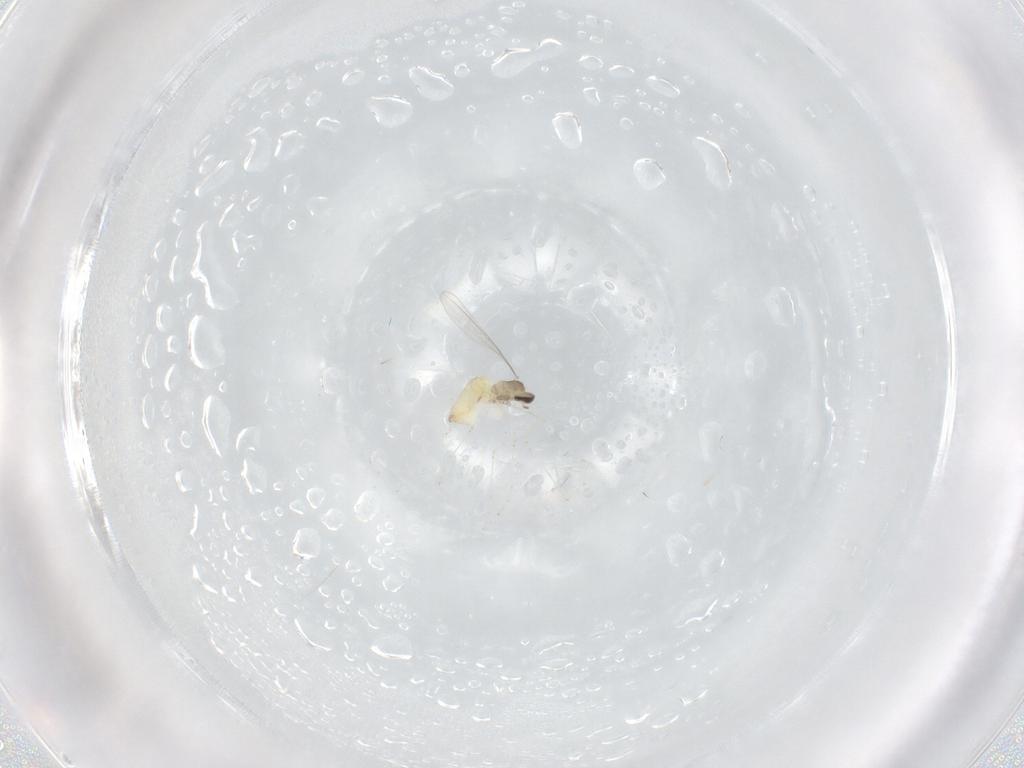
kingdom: Animalia
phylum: Arthropoda
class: Insecta
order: Diptera
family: Cecidomyiidae
